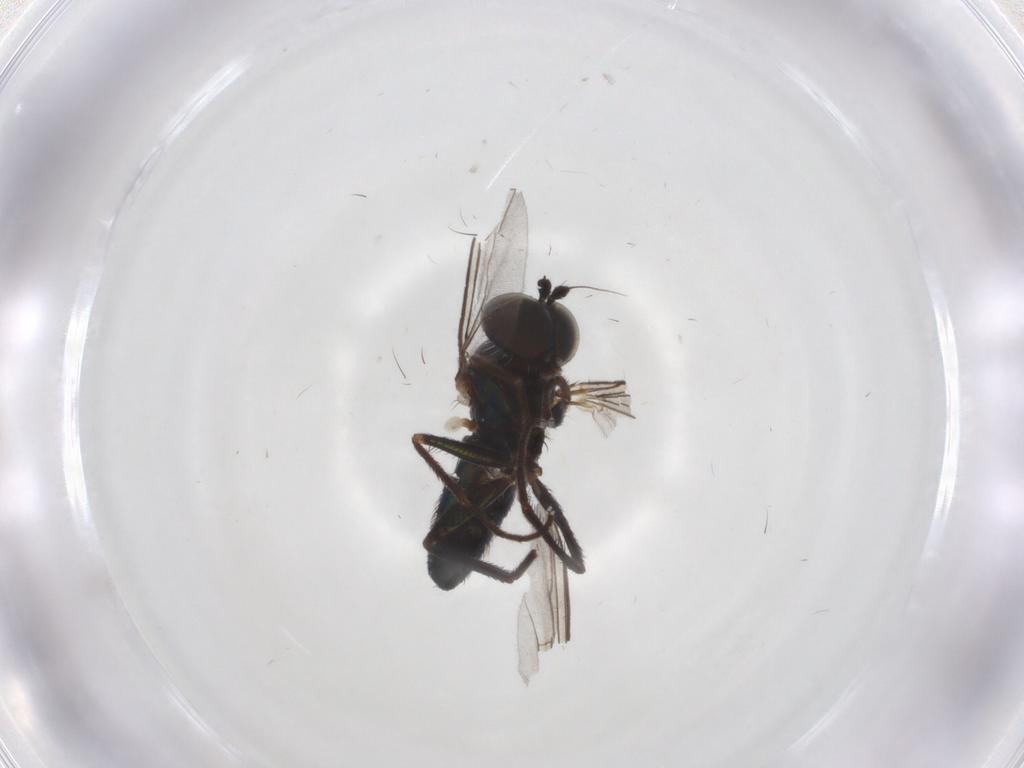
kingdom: Animalia
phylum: Arthropoda
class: Insecta
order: Diptera
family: Dolichopodidae
